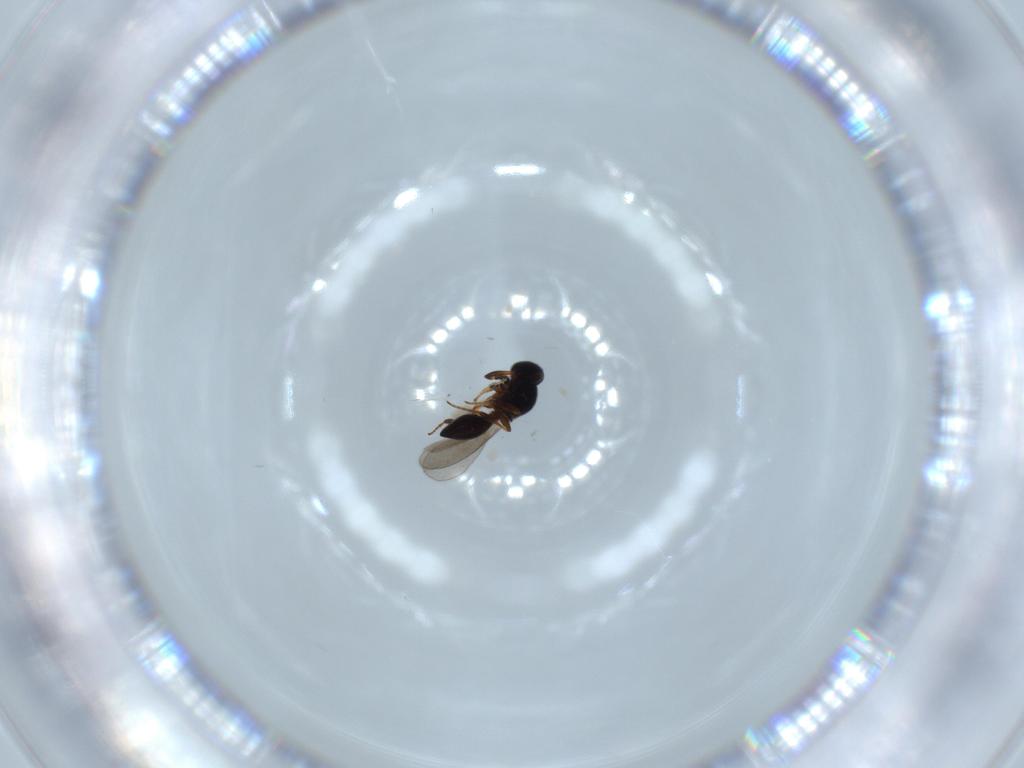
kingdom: Animalia
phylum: Arthropoda
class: Insecta
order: Hymenoptera
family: Platygastridae
